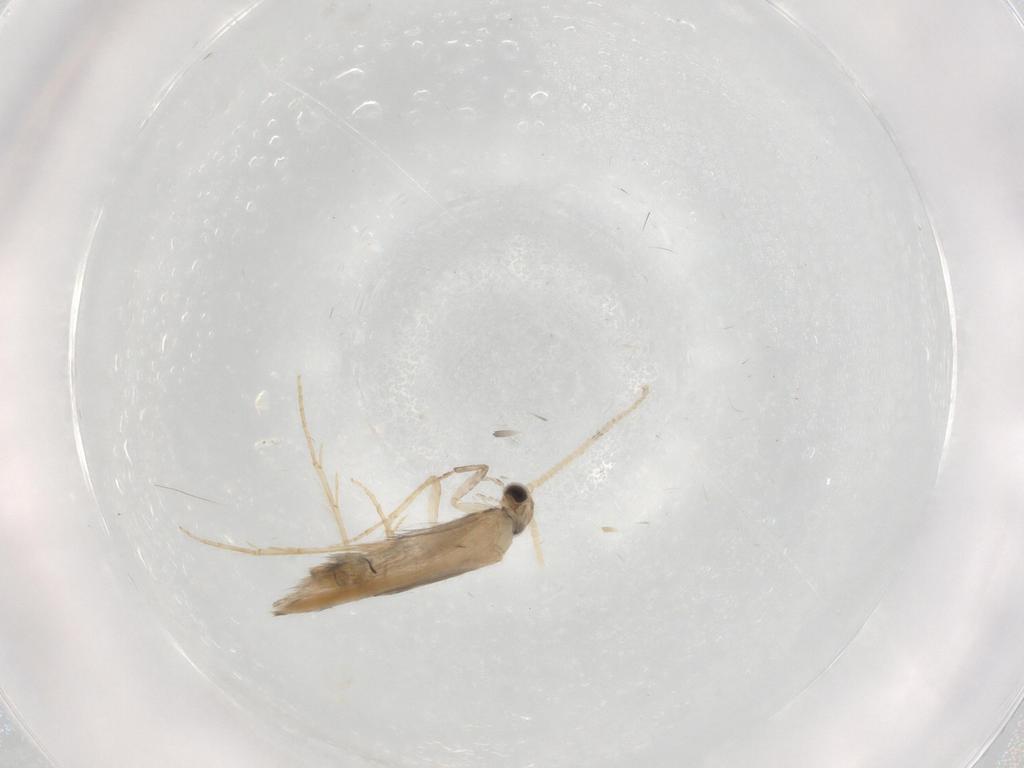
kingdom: Animalia
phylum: Arthropoda
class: Insecta
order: Trichoptera
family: Hydroptilidae
